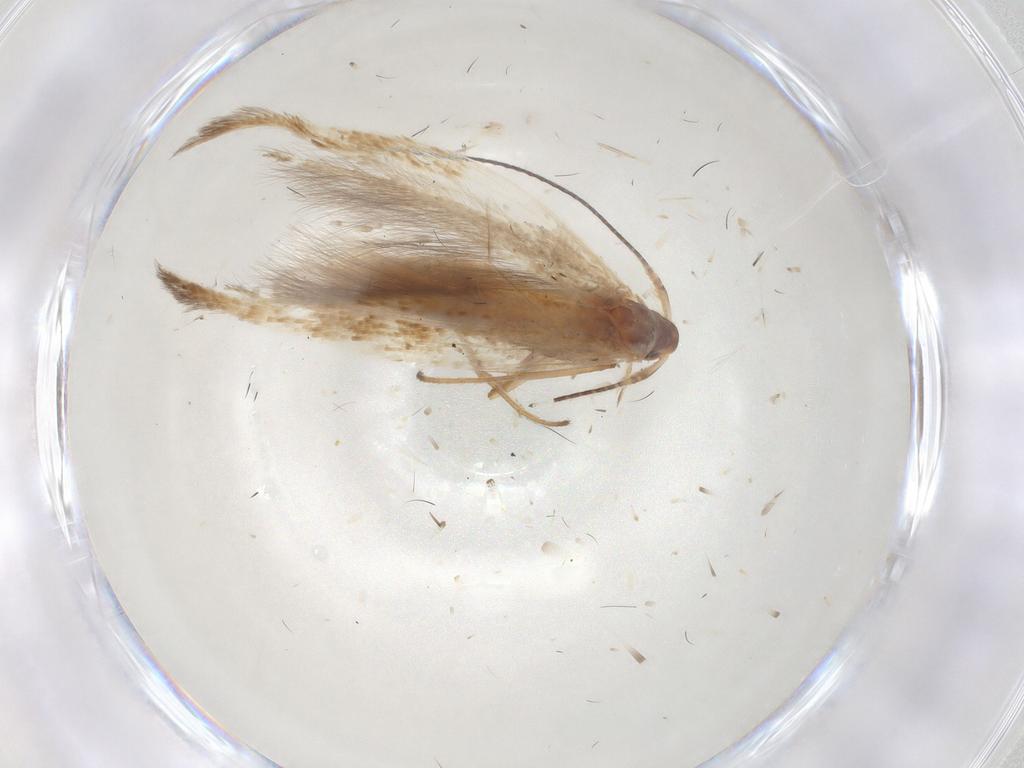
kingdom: Animalia
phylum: Arthropoda
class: Insecta
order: Lepidoptera
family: Coleophoridae
